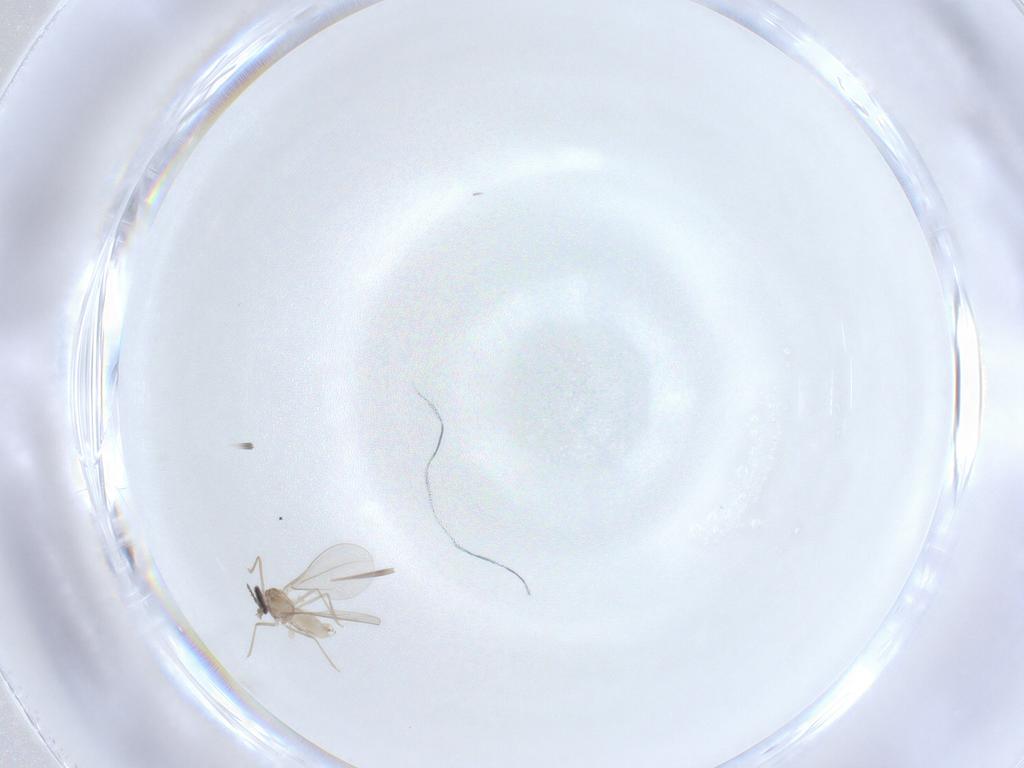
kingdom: Animalia
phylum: Arthropoda
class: Insecta
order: Diptera
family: Cecidomyiidae
